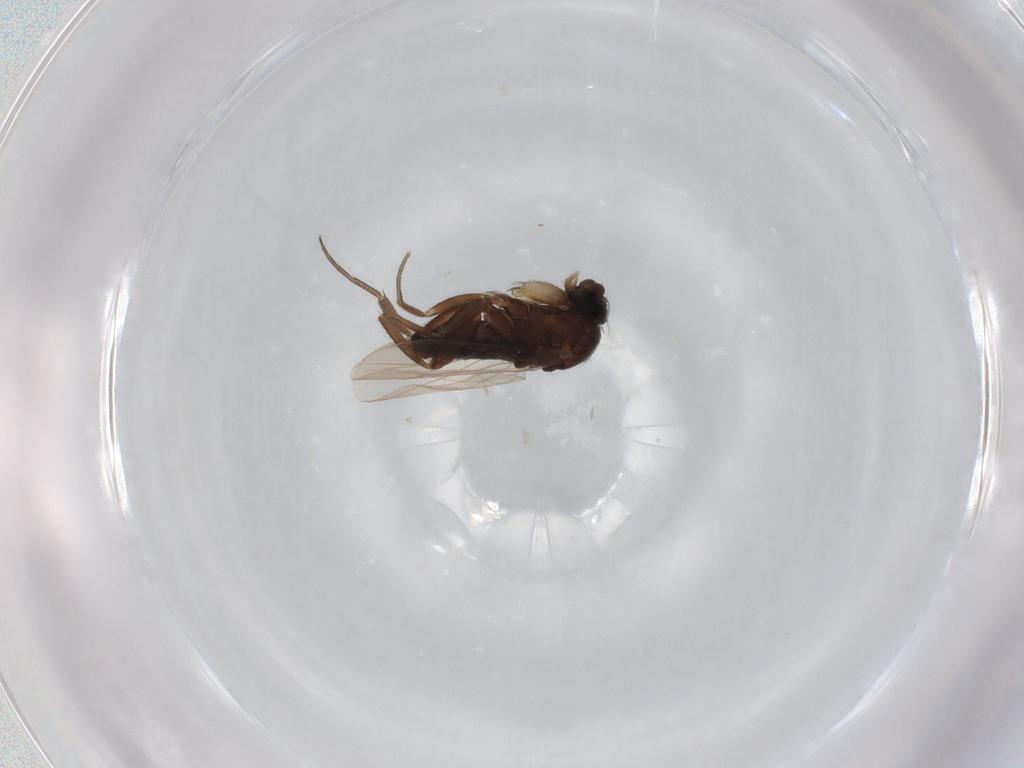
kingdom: Animalia
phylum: Arthropoda
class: Insecta
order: Diptera
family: Phoridae
